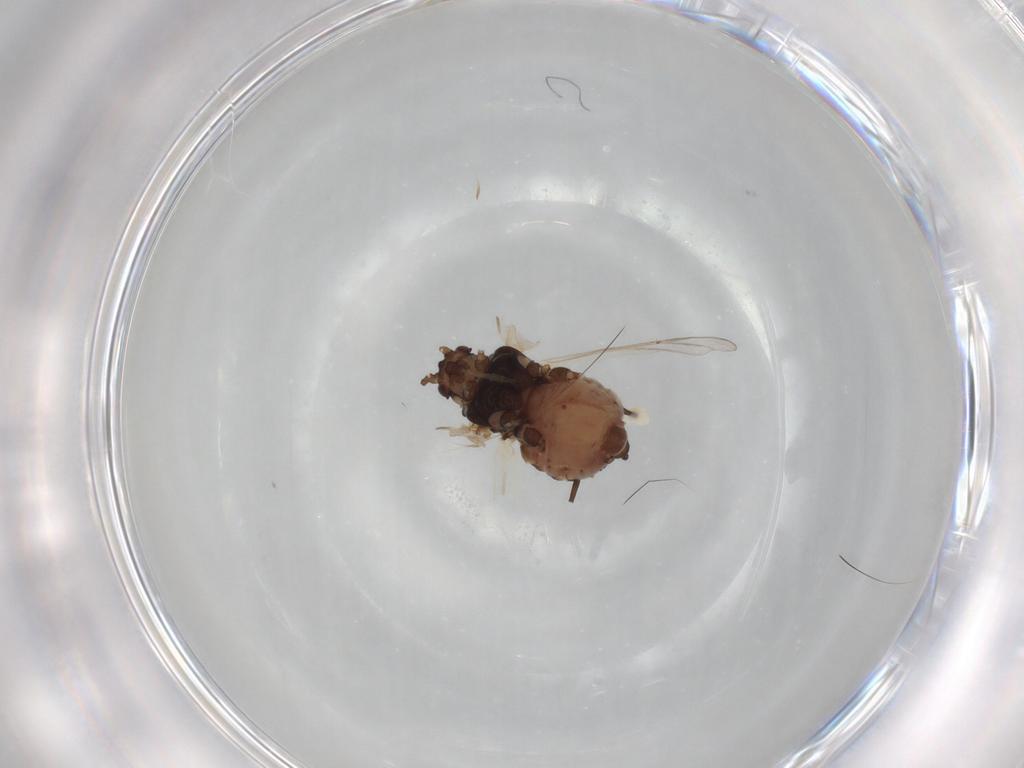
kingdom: Animalia
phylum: Arthropoda
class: Insecta
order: Hemiptera
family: Aphididae
